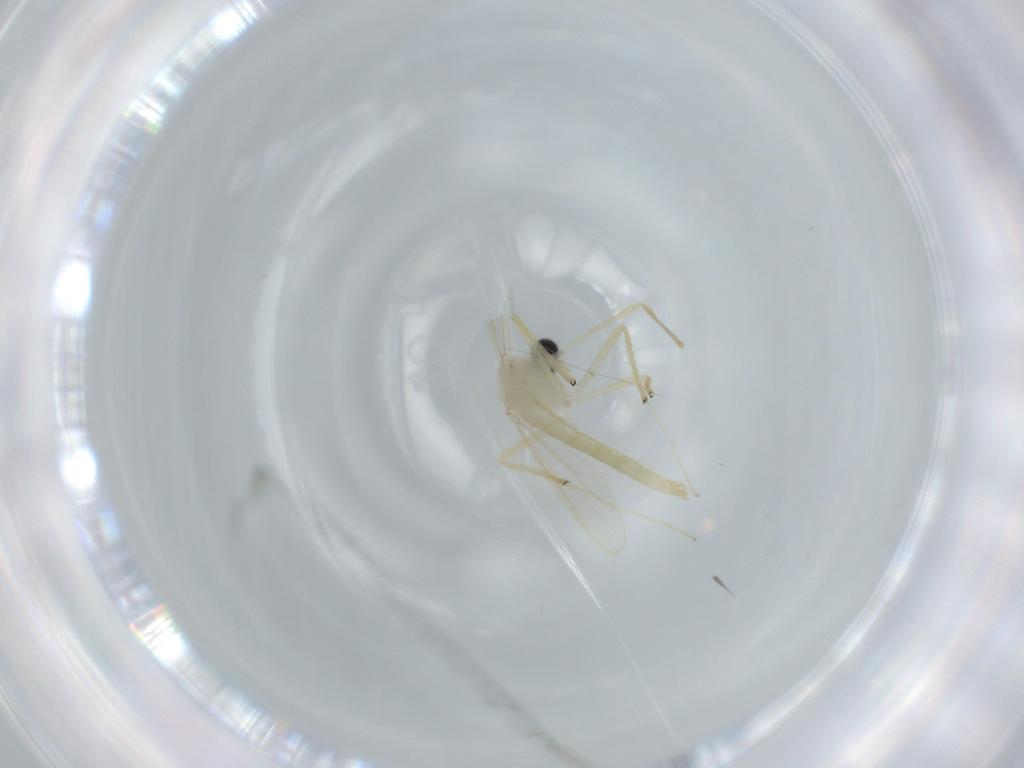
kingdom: Animalia
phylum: Arthropoda
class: Insecta
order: Diptera
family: Chironomidae
